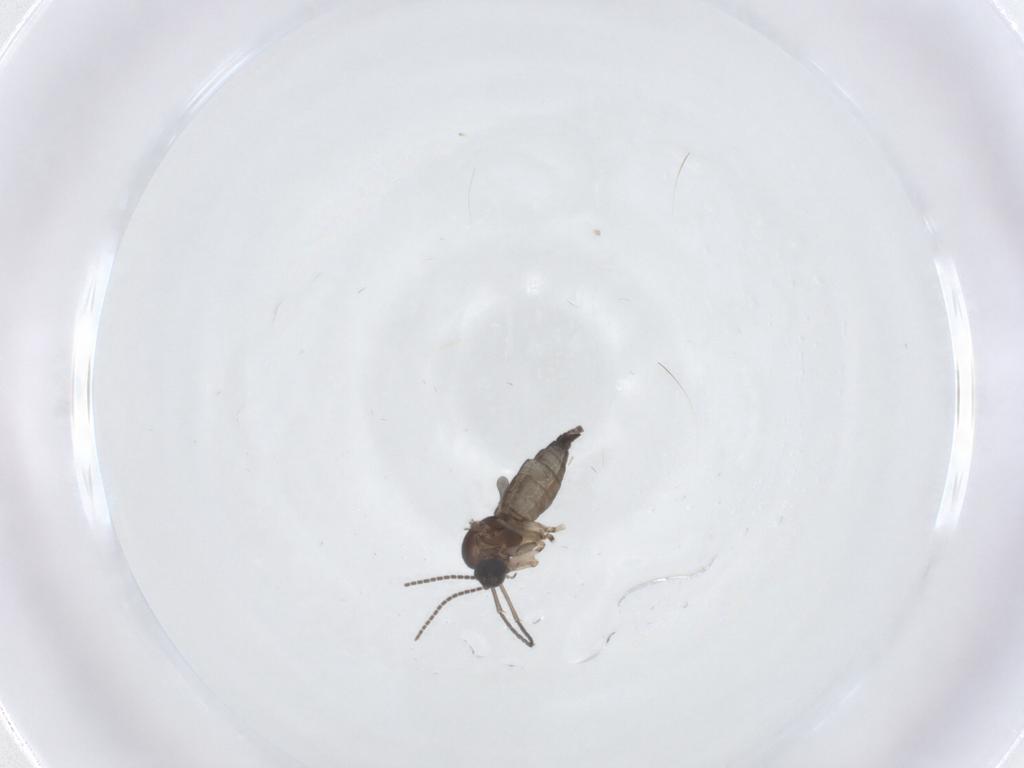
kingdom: Animalia
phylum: Arthropoda
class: Insecta
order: Diptera
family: Sciaridae
